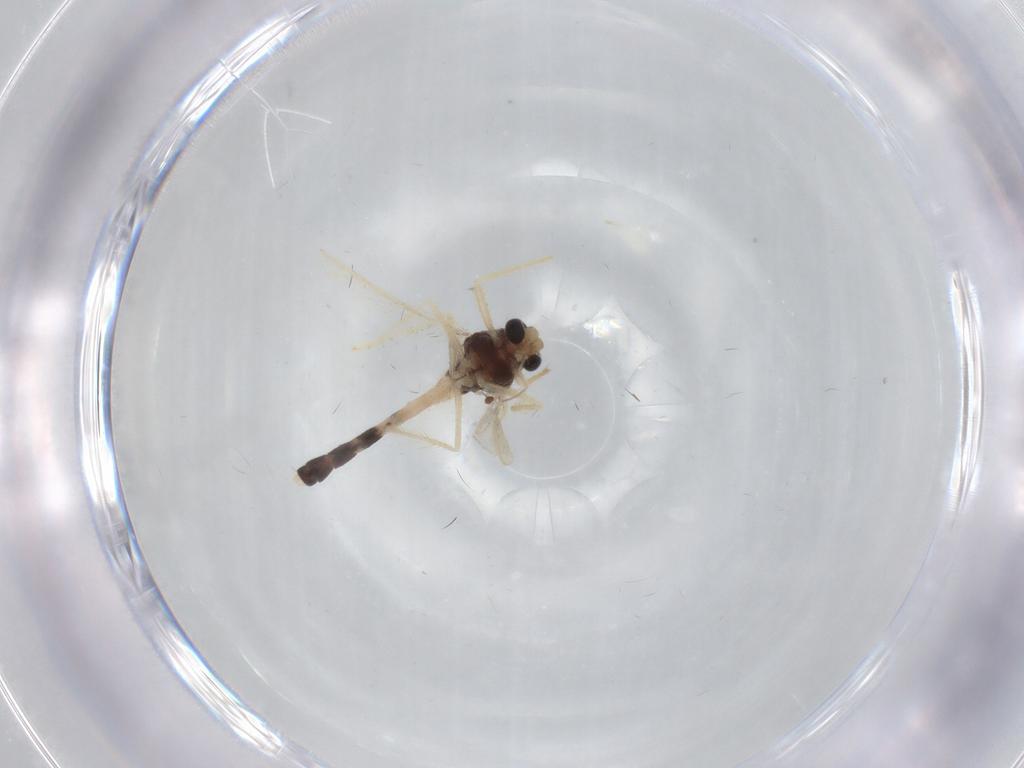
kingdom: Animalia
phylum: Arthropoda
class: Insecta
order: Diptera
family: Chironomidae
